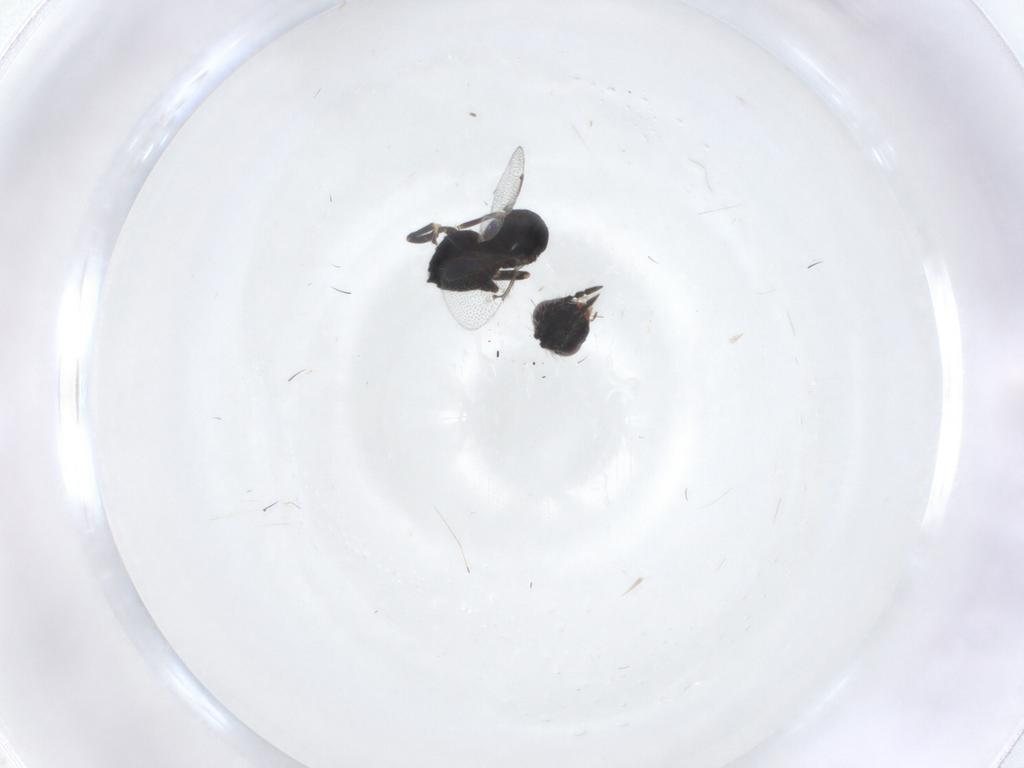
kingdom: Animalia
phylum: Arthropoda
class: Insecta
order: Hymenoptera
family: Eulophidae
